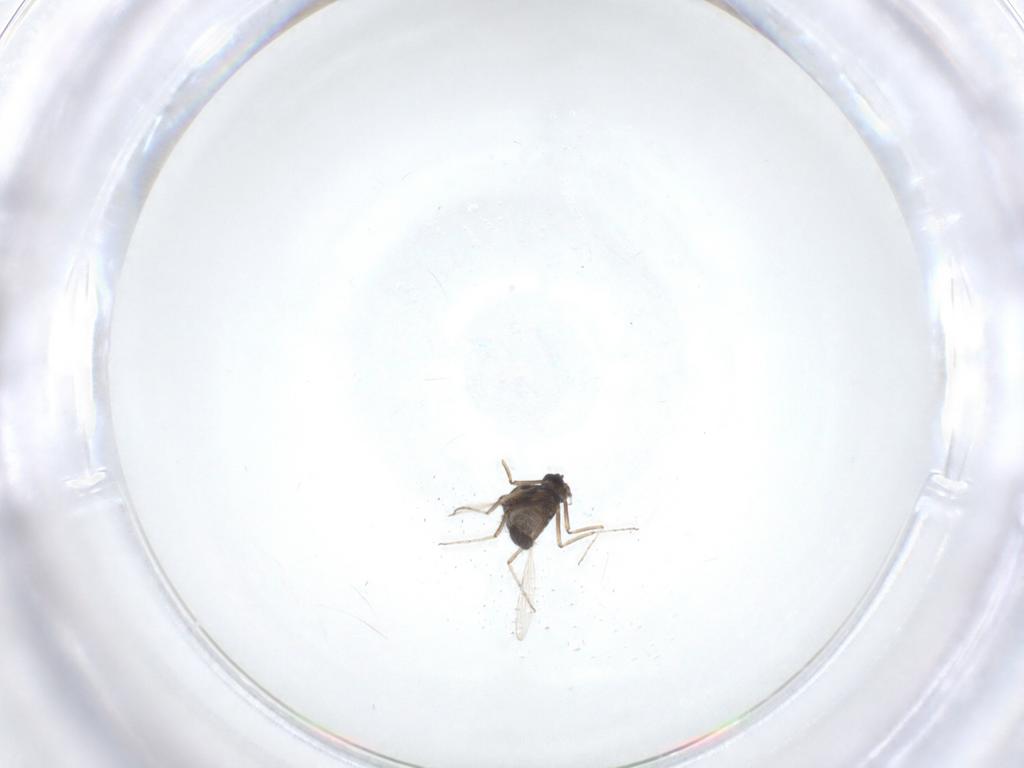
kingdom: Animalia
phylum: Arthropoda
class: Insecta
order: Diptera
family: Ceratopogonidae
